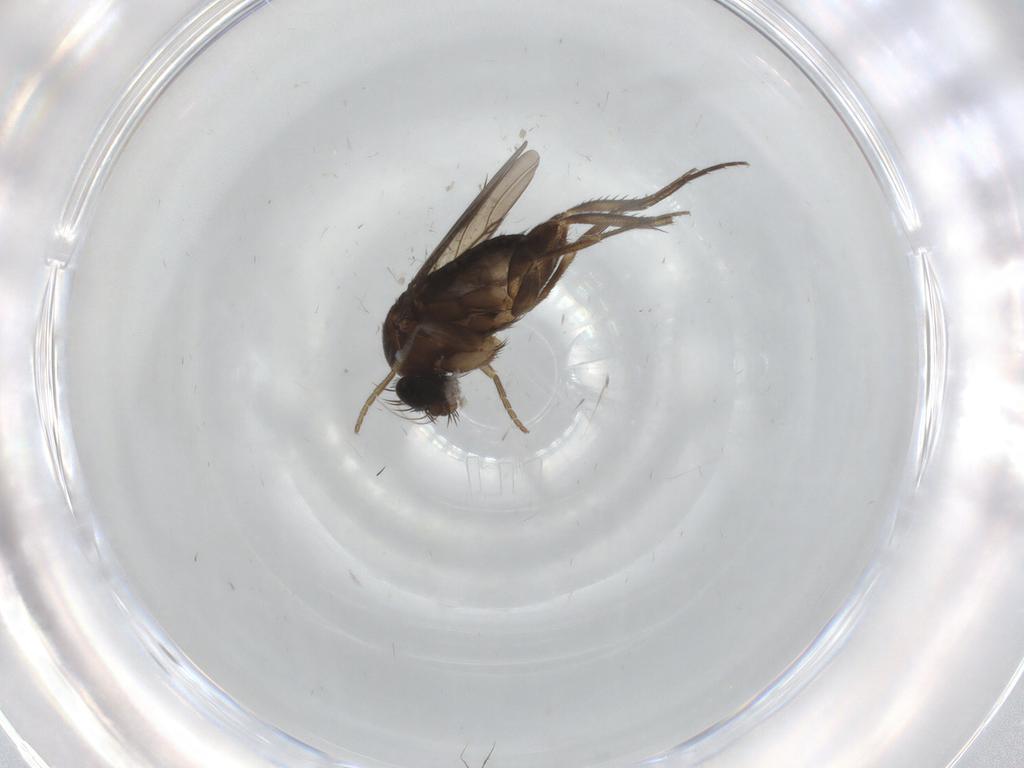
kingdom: Animalia
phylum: Arthropoda
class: Insecta
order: Diptera
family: Phoridae
